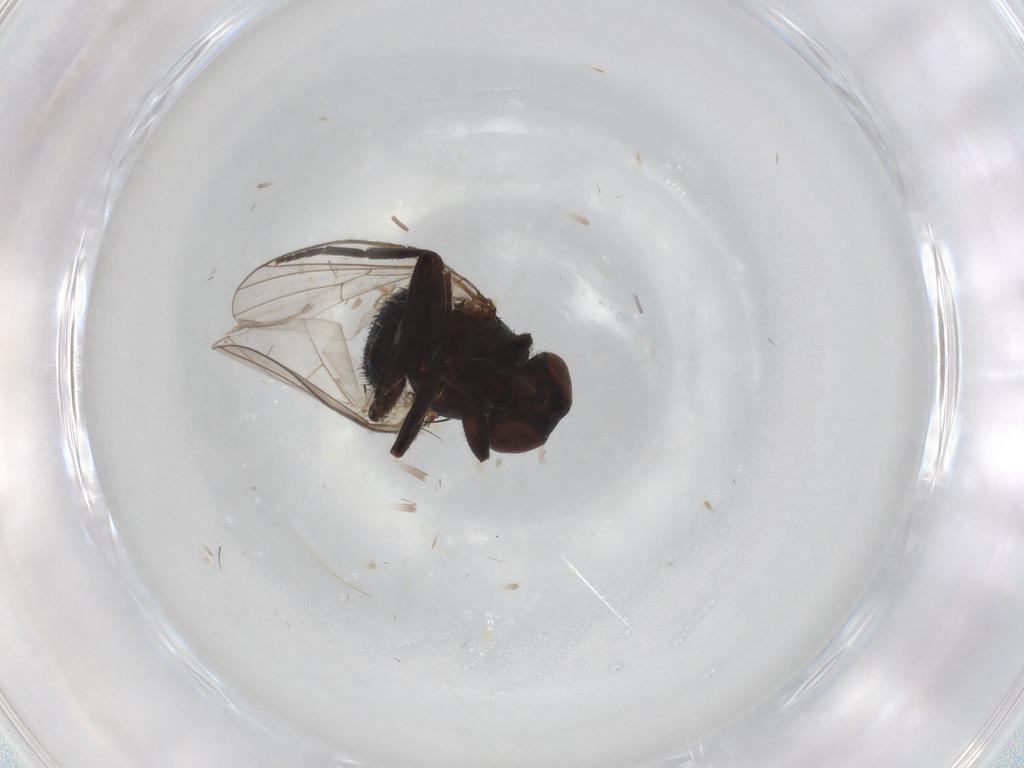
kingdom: Animalia
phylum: Arthropoda
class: Insecta
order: Diptera
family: Agromyzidae
